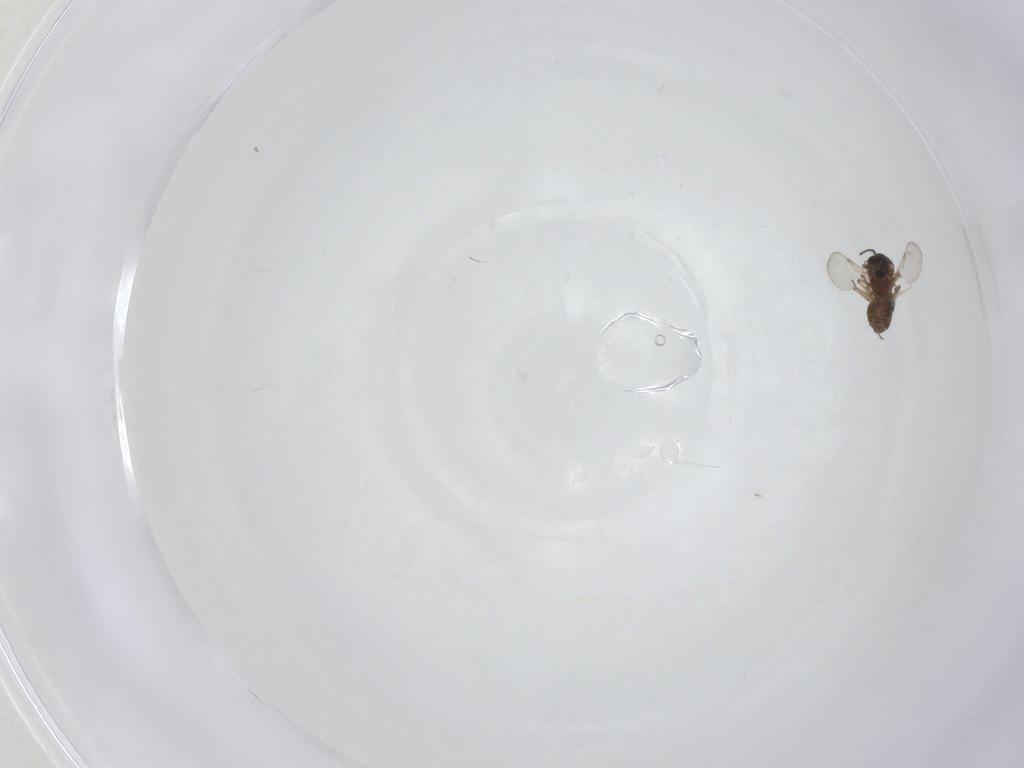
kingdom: Animalia
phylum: Arthropoda
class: Insecta
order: Diptera
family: Ceratopogonidae
